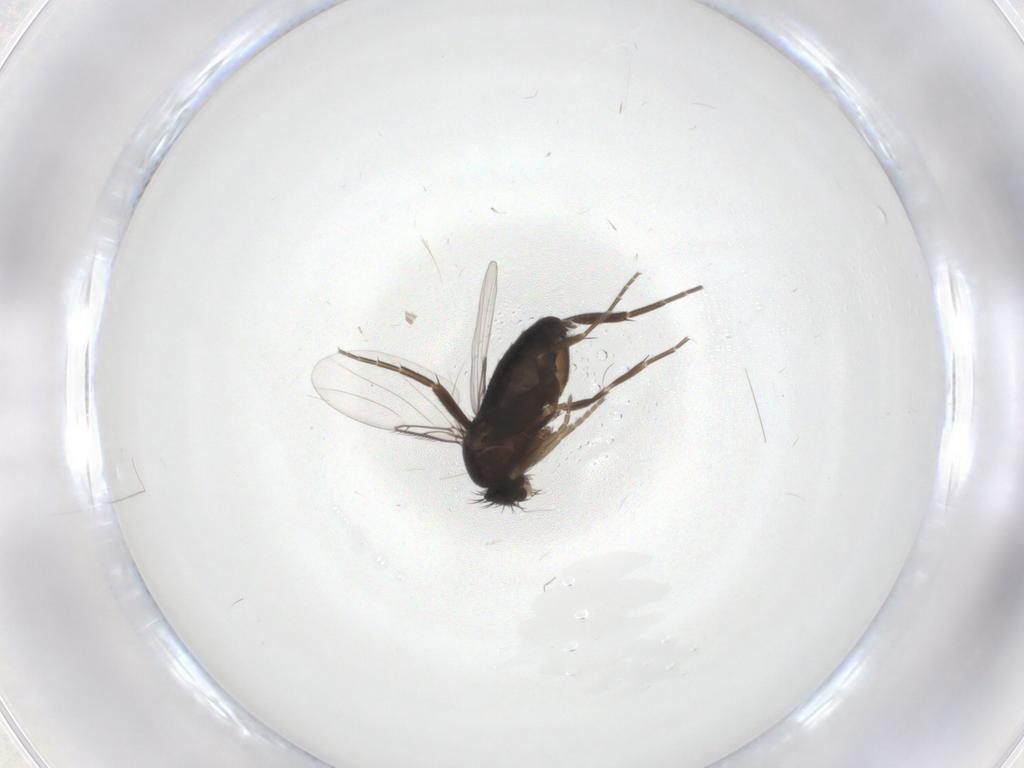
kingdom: Animalia
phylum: Arthropoda
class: Insecta
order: Diptera
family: Phoridae
